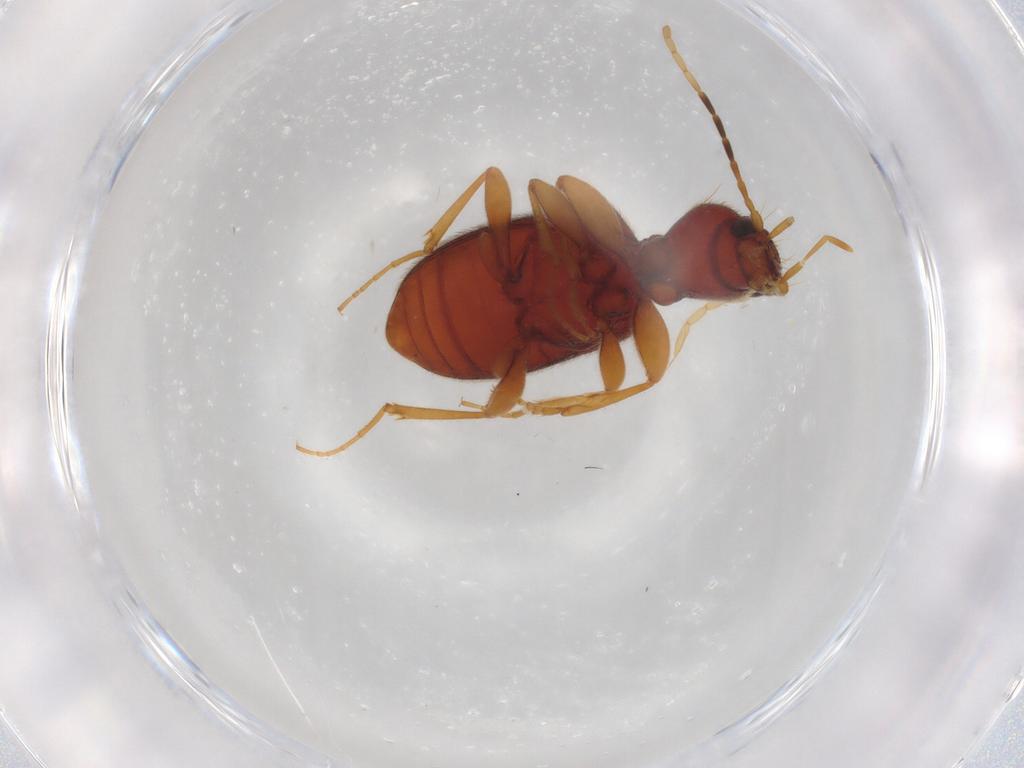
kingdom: Animalia
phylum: Arthropoda
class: Insecta
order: Coleoptera
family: Carabidae
